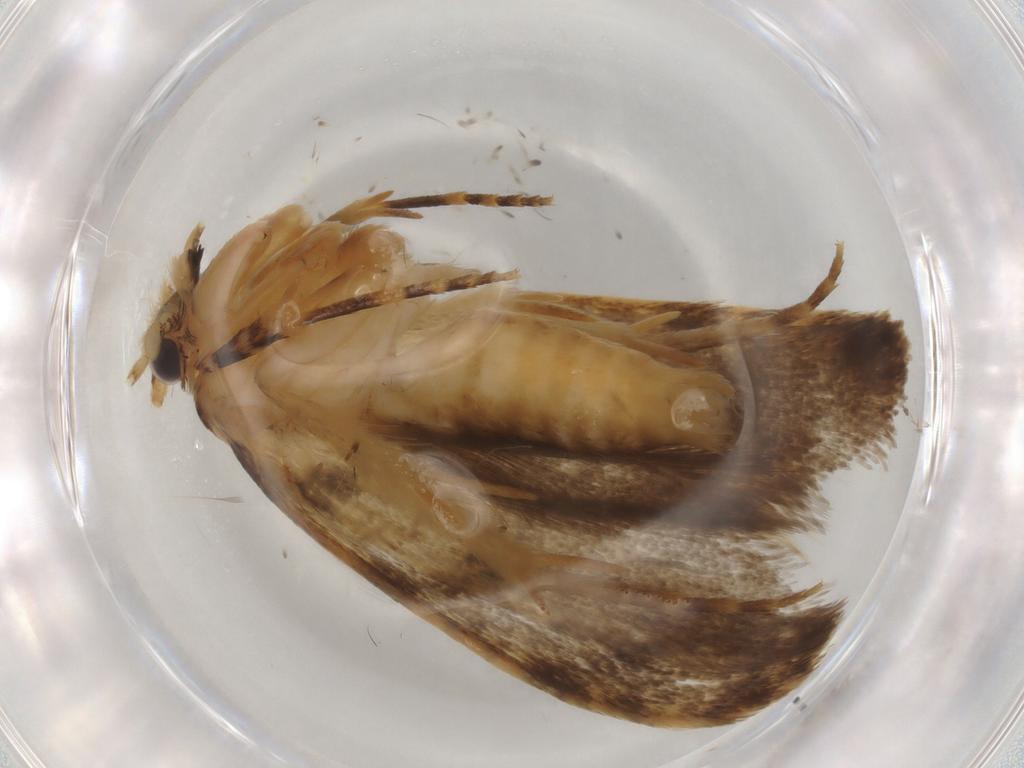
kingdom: Animalia
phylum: Arthropoda
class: Insecta
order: Lepidoptera
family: Tineidae
